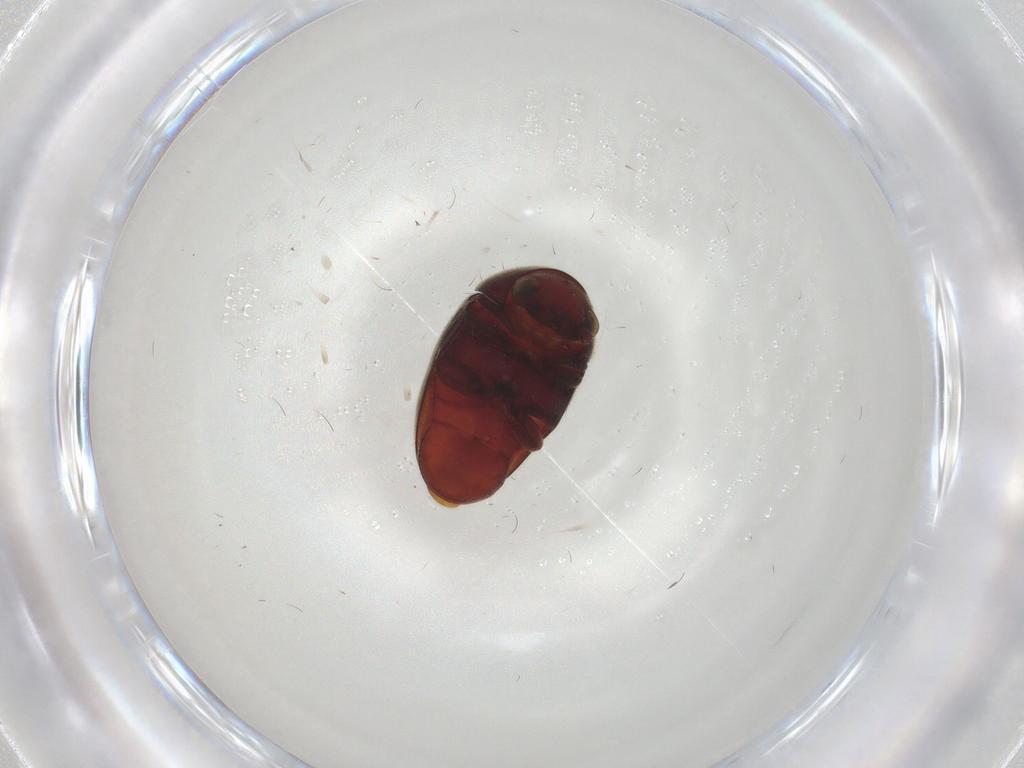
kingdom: Animalia
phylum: Arthropoda
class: Insecta
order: Coleoptera
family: Ptinidae
